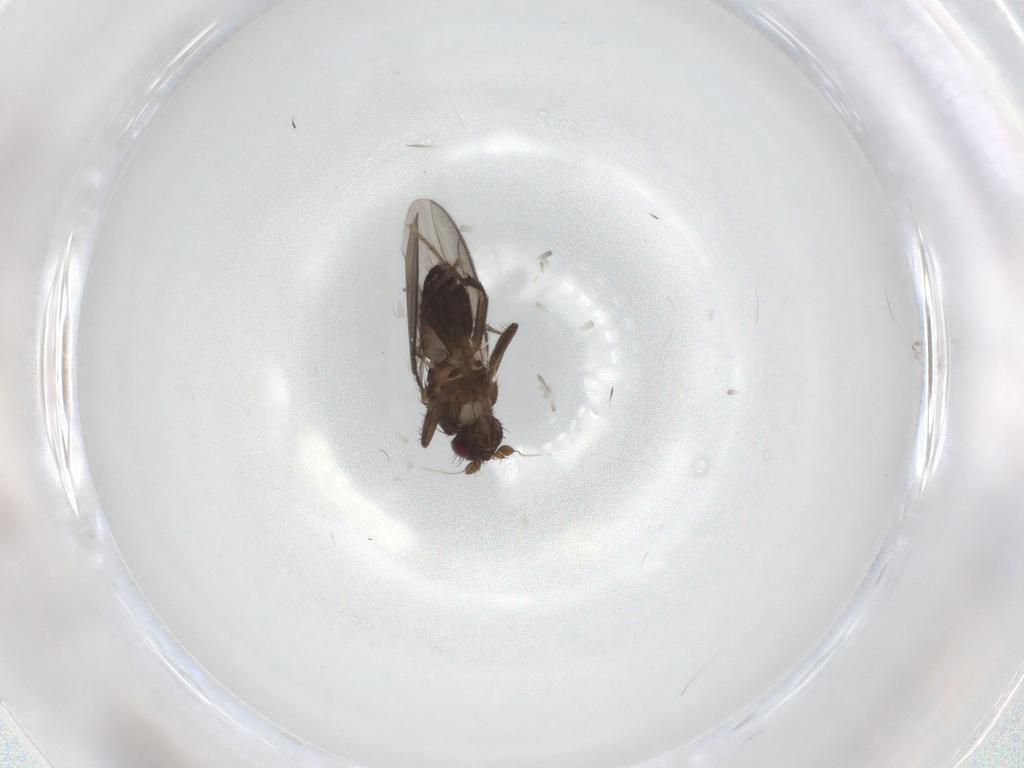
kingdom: Animalia
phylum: Arthropoda
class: Insecta
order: Diptera
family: Sphaeroceridae
